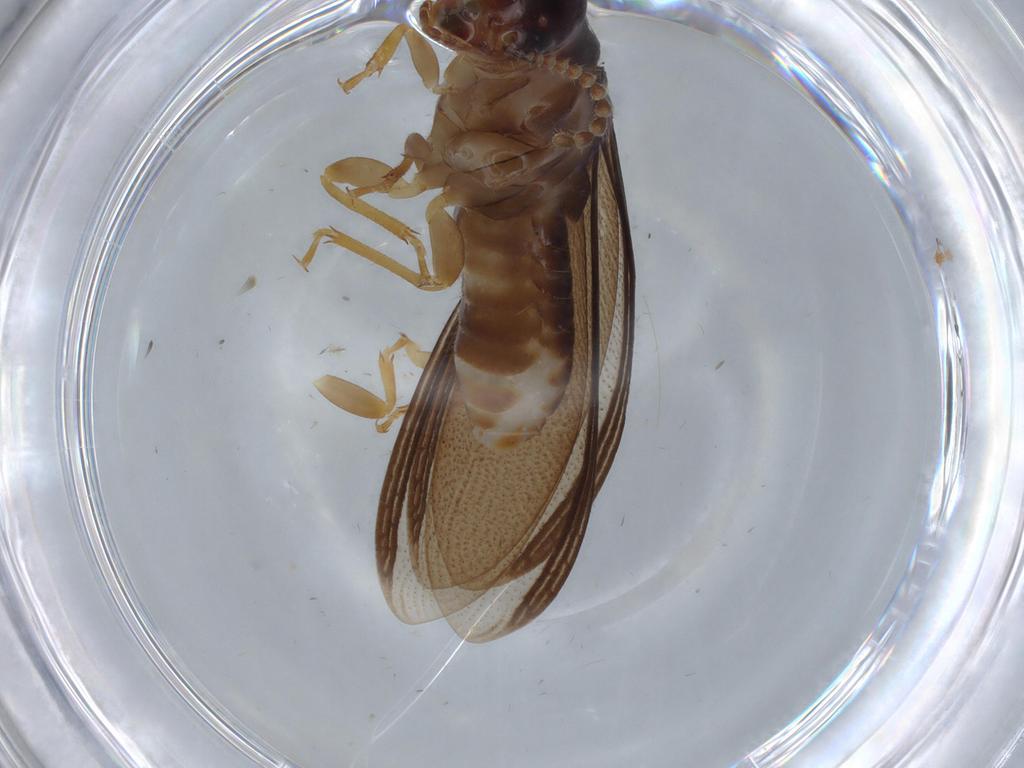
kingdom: Animalia
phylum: Arthropoda
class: Insecta
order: Blattodea
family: Kalotermitidae
